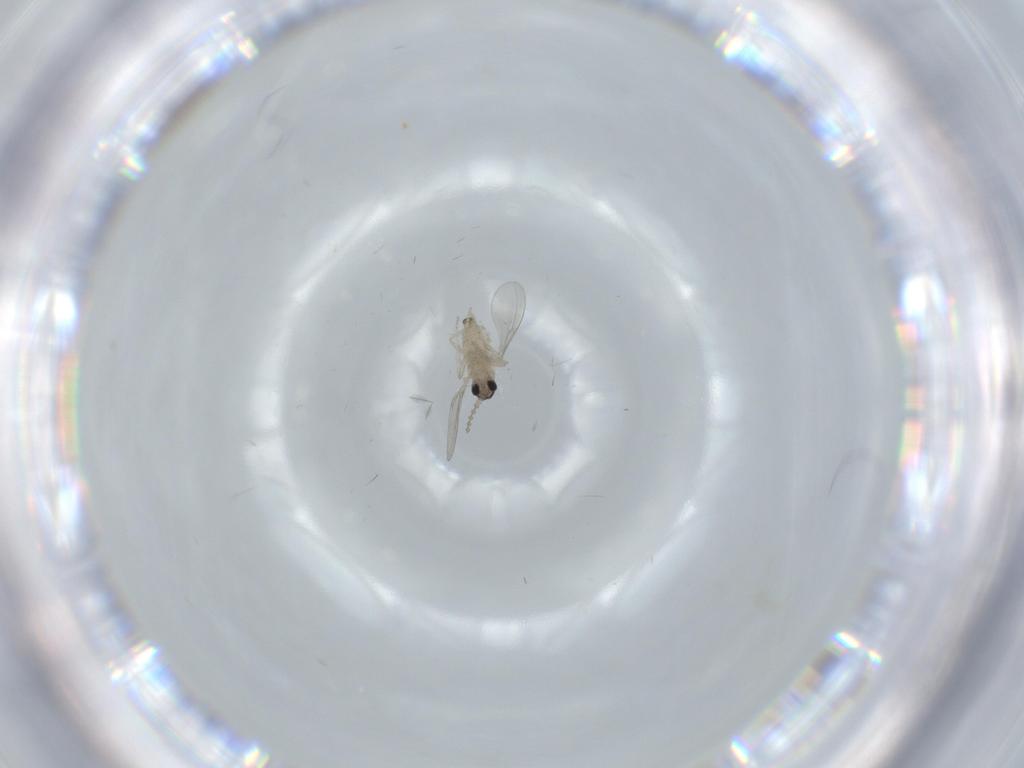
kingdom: Animalia
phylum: Arthropoda
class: Insecta
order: Diptera
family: Cecidomyiidae
